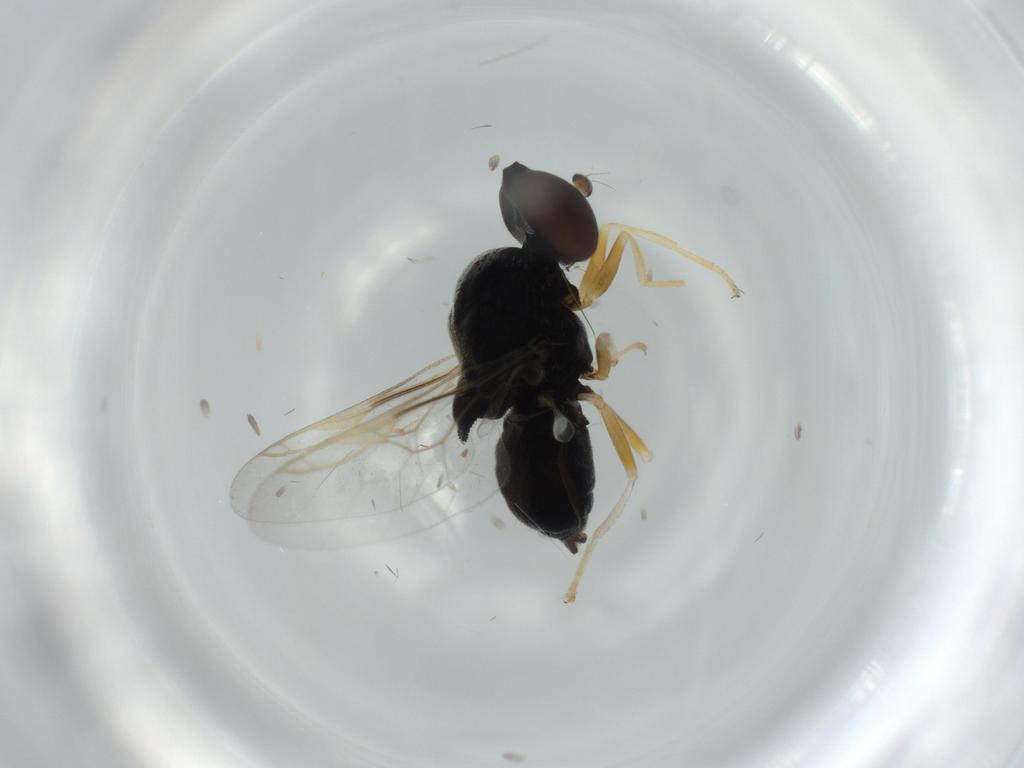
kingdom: Animalia
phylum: Arthropoda
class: Insecta
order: Diptera
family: Stratiomyidae
